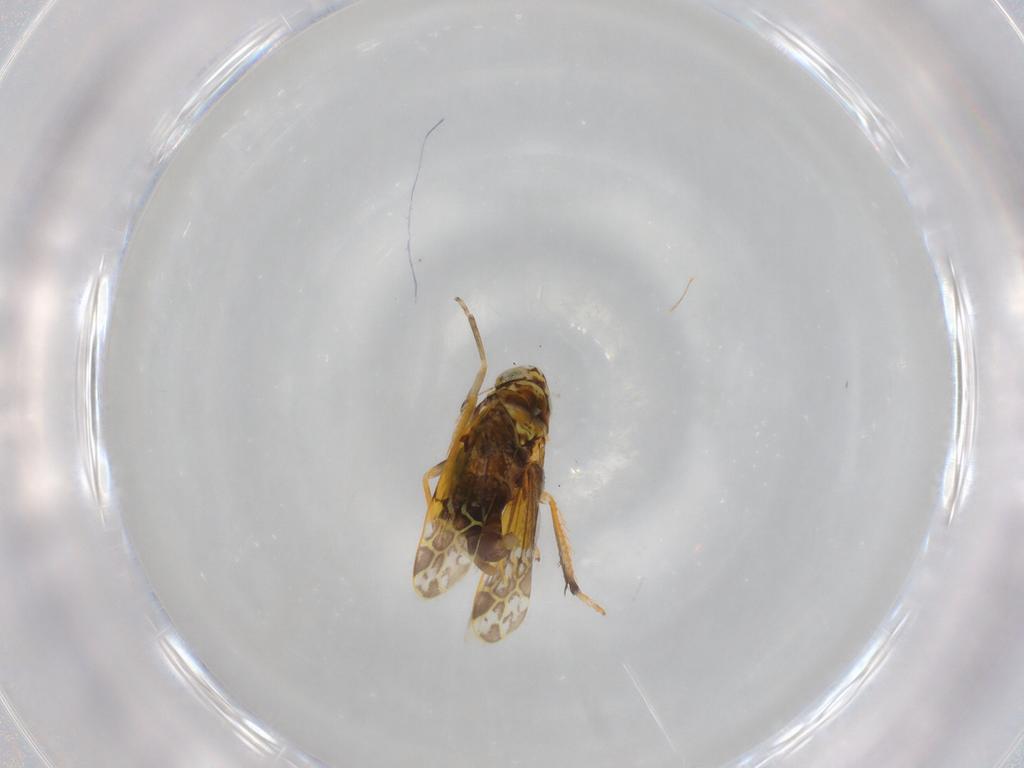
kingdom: Animalia
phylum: Arthropoda
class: Insecta
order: Hemiptera
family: Cicadellidae
